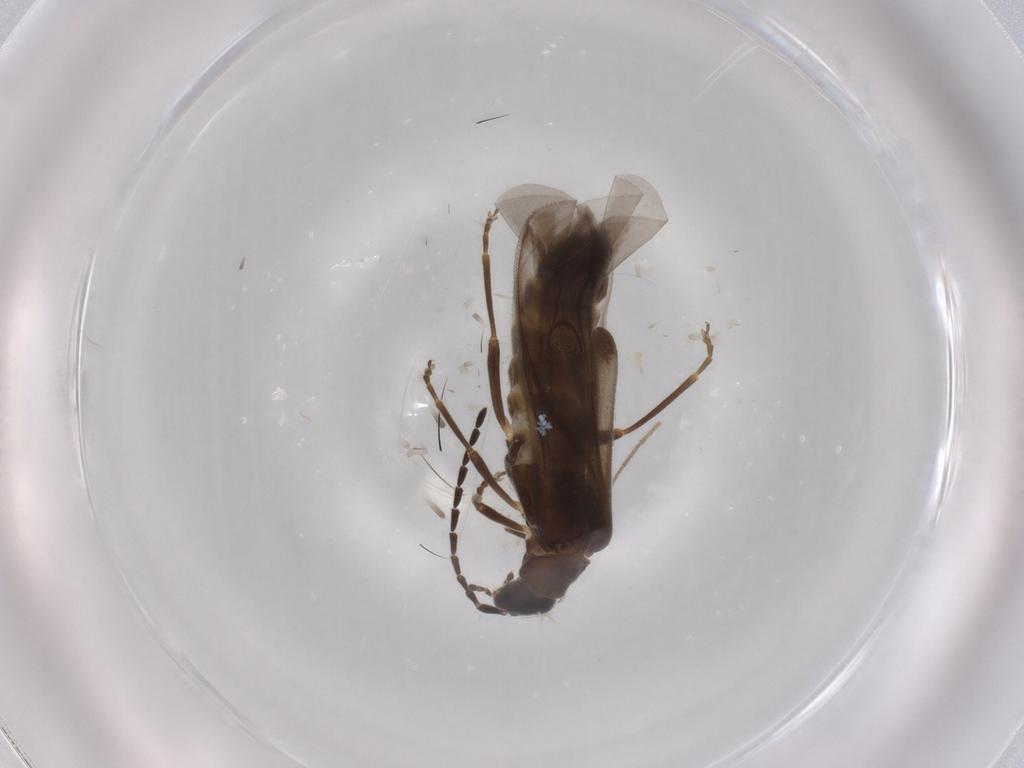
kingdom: Animalia
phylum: Arthropoda
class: Insecta
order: Coleoptera
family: Cantharidae
